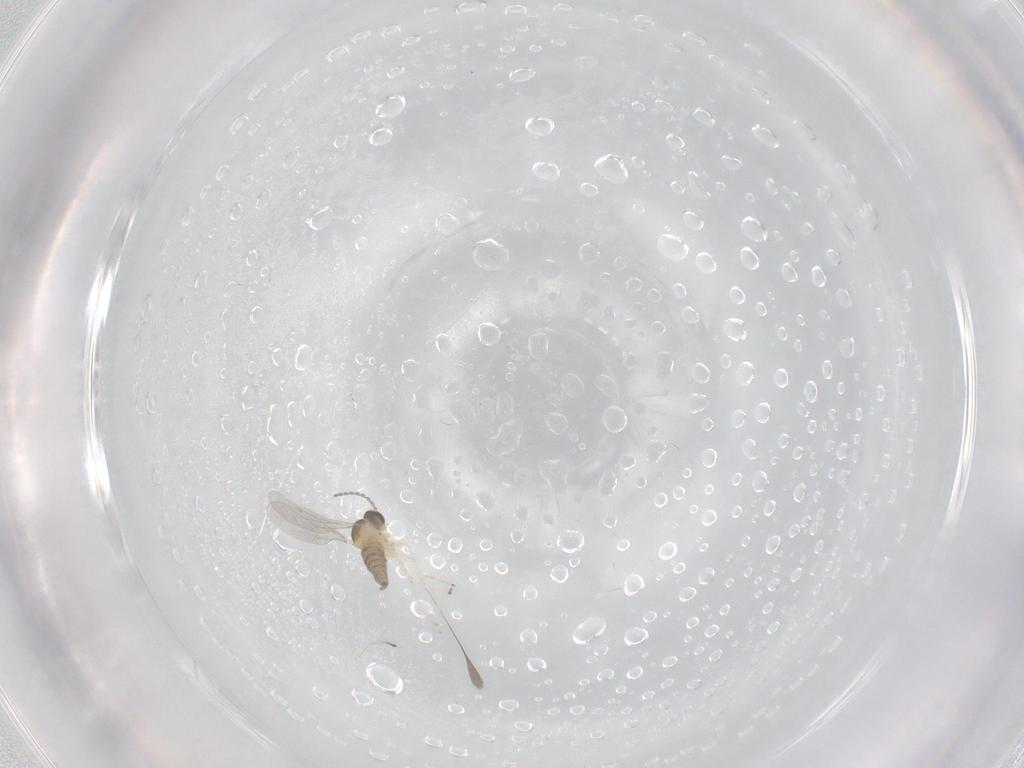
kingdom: Animalia
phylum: Arthropoda
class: Insecta
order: Diptera
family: Cecidomyiidae
